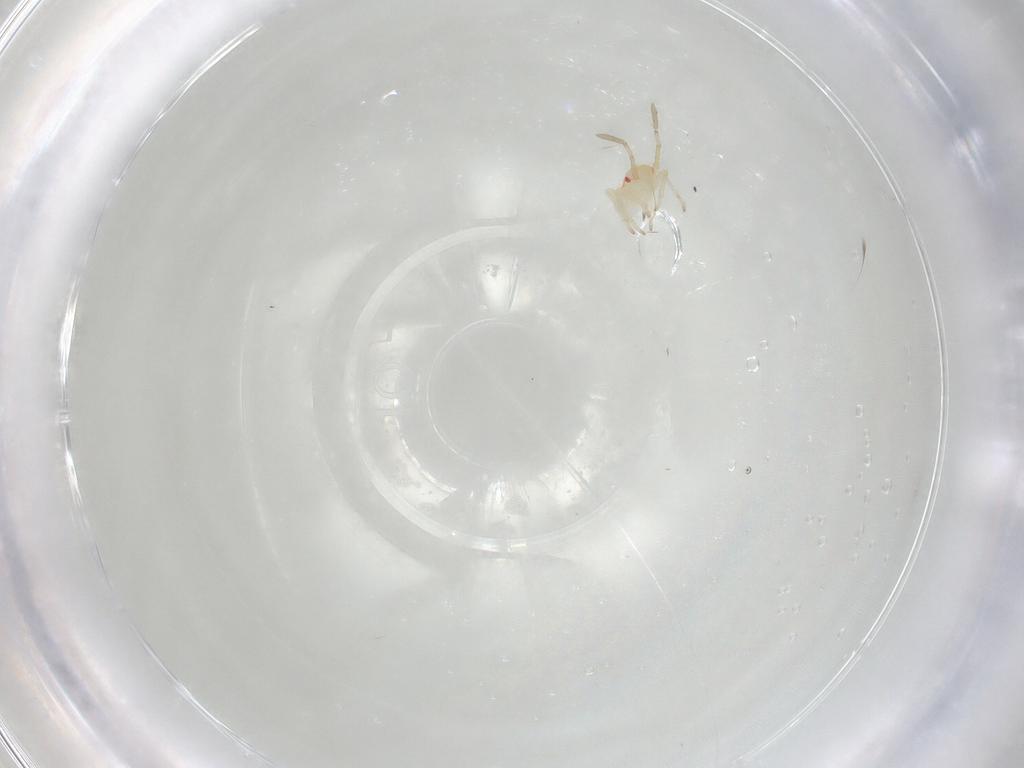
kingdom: Animalia
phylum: Arthropoda
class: Insecta
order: Hemiptera
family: Miridae
